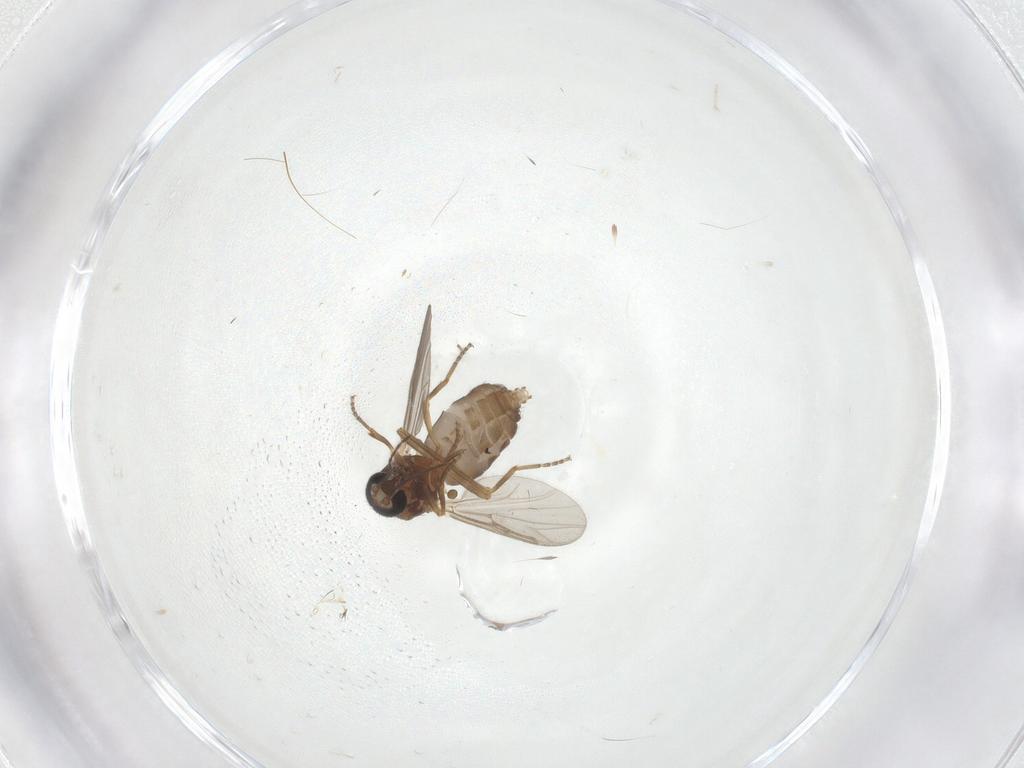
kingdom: Animalia
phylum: Arthropoda
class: Insecta
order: Diptera
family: Ceratopogonidae
